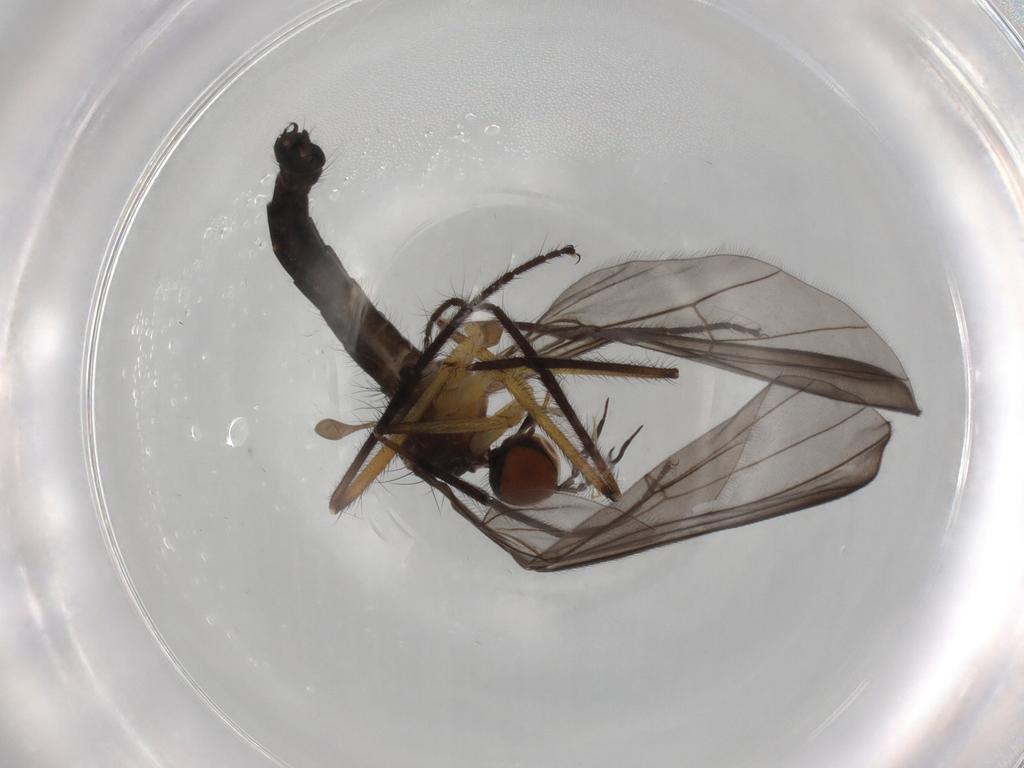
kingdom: Animalia
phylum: Arthropoda
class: Insecta
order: Diptera
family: Empididae
